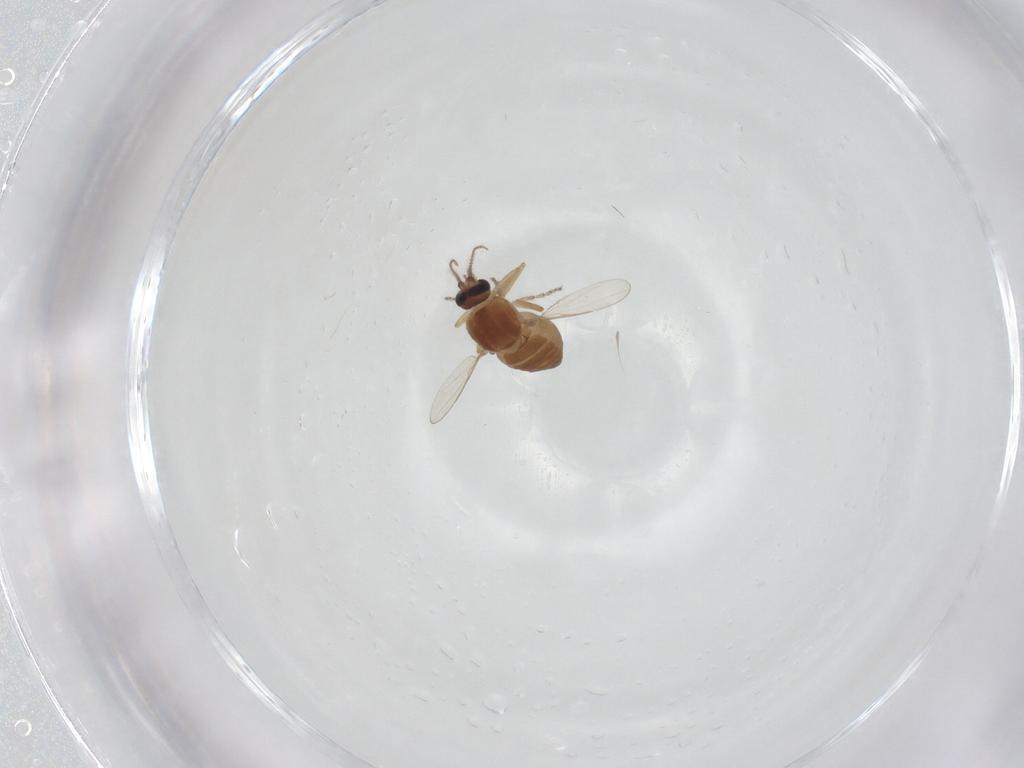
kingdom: Animalia
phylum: Arthropoda
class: Insecta
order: Diptera
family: Ceratopogonidae
